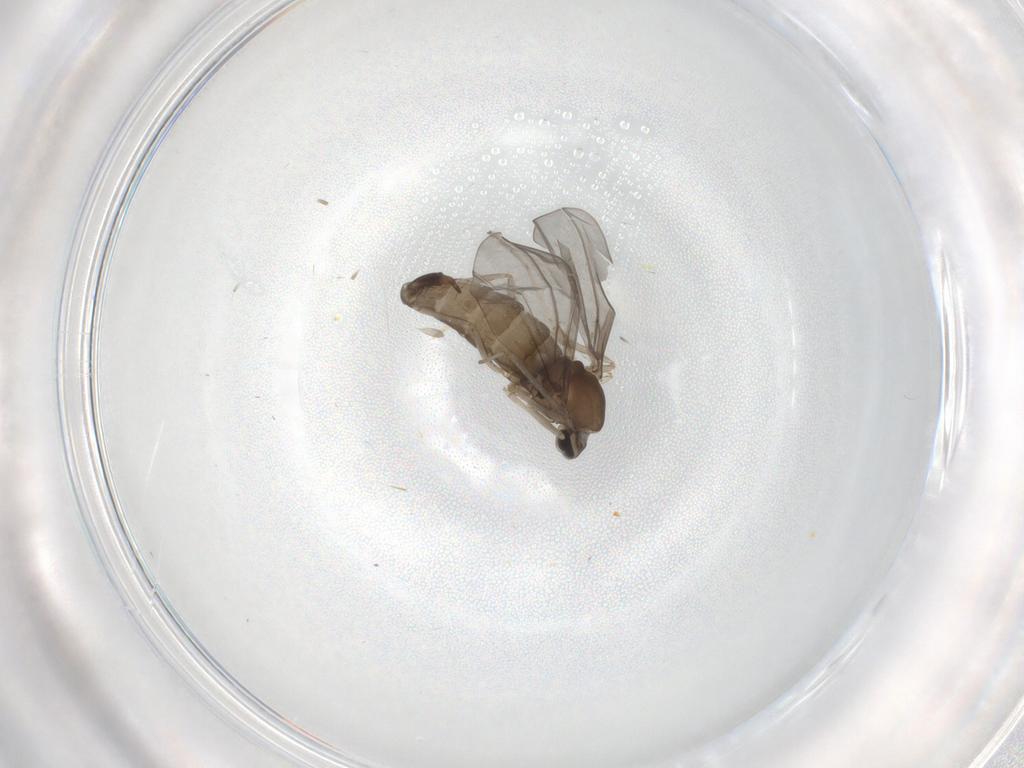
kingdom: Animalia
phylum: Arthropoda
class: Insecta
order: Diptera
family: Cecidomyiidae
